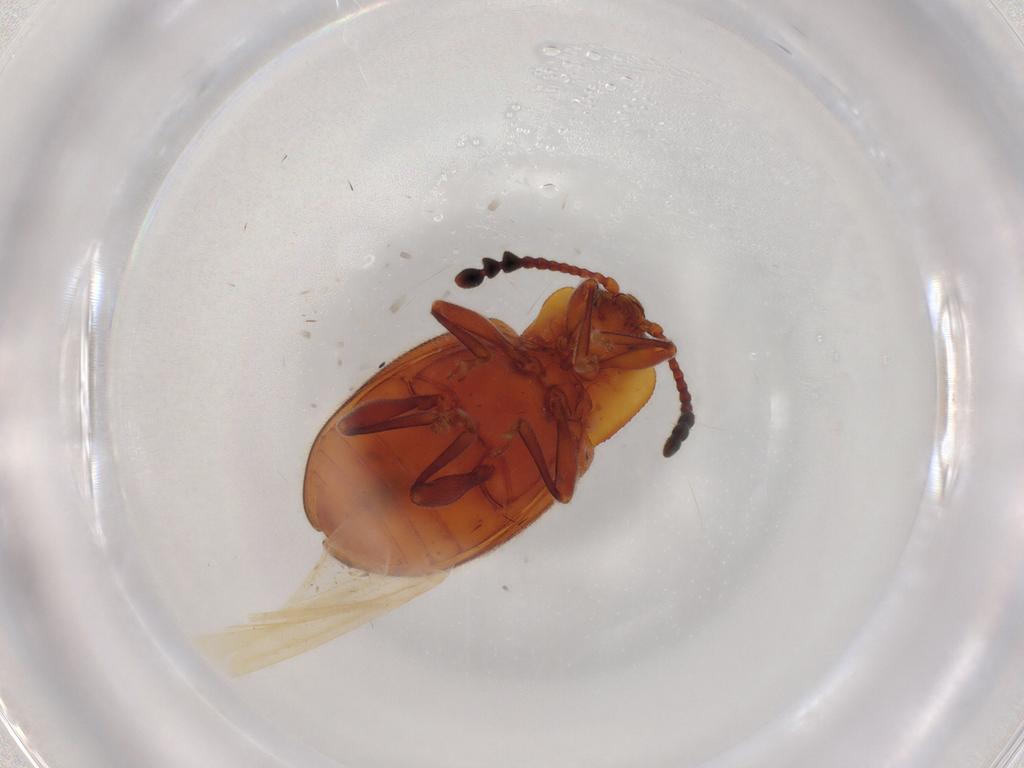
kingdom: Animalia
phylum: Arthropoda
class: Insecta
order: Coleoptera
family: Endomychidae
